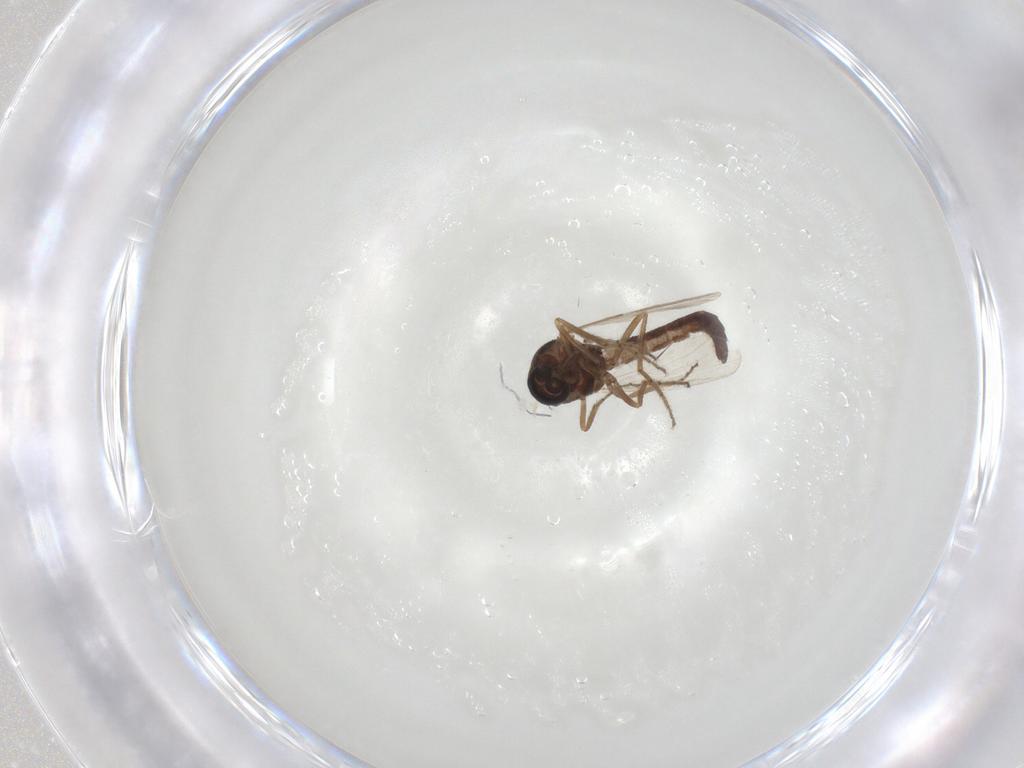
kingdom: Animalia
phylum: Arthropoda
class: Insecta
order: Diptera
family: Ceratopogonidae
